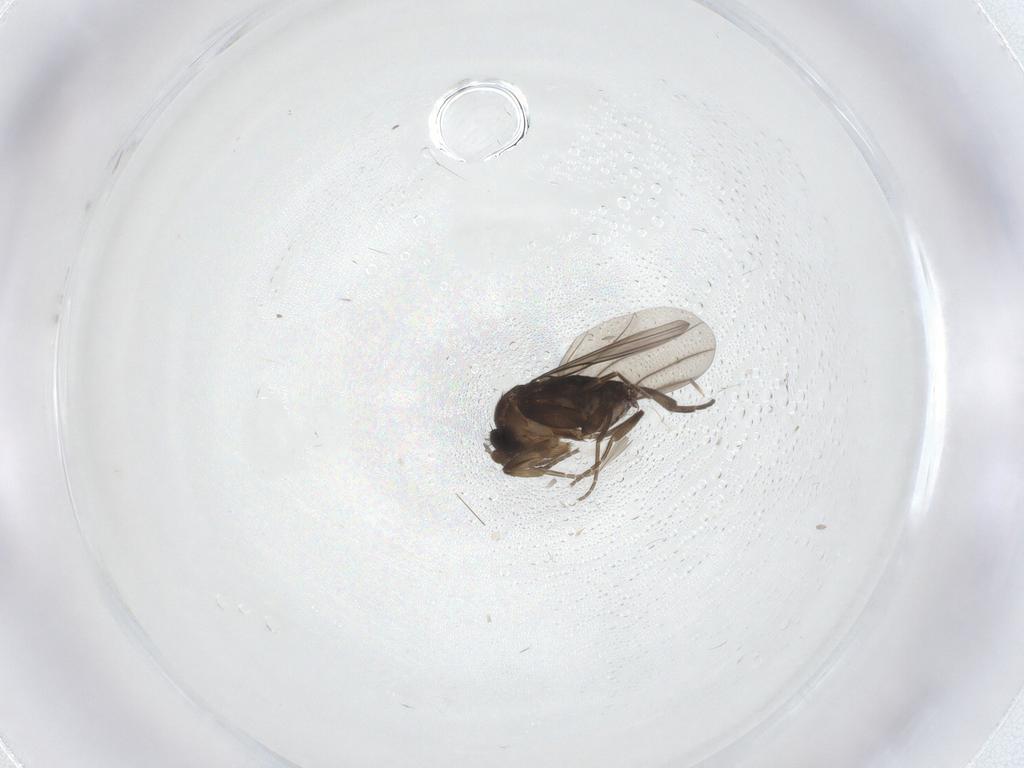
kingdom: Animalia
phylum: Arthropoda
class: Insecta
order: Diptera
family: Phoridae
